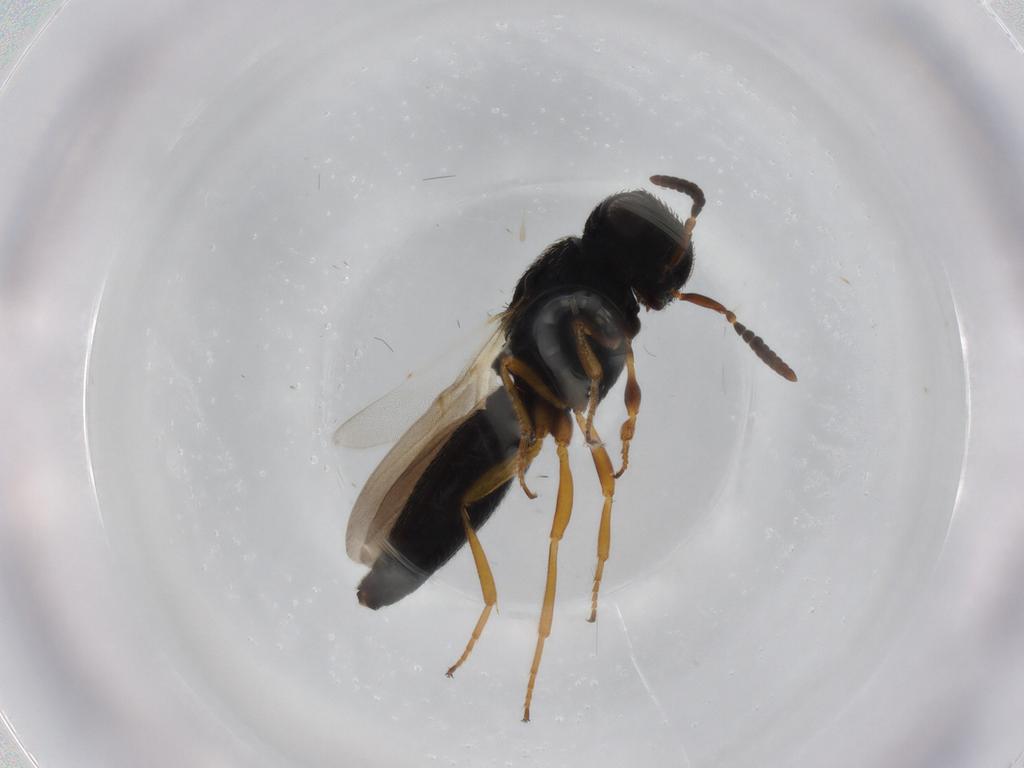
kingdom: Animalia
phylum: Arthropoda
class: Insecta
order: Hymenoptera
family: Scelionidae
